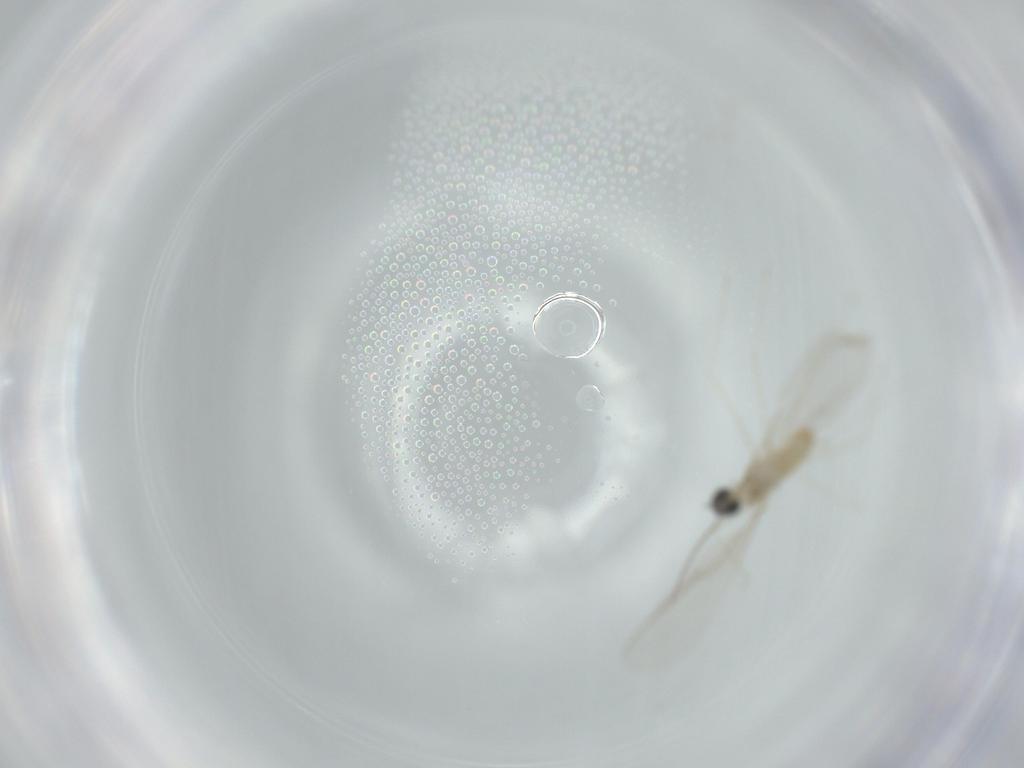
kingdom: Animalia
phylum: Arthropoda
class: Insecta
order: Diptera
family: Cecidomyiidae
